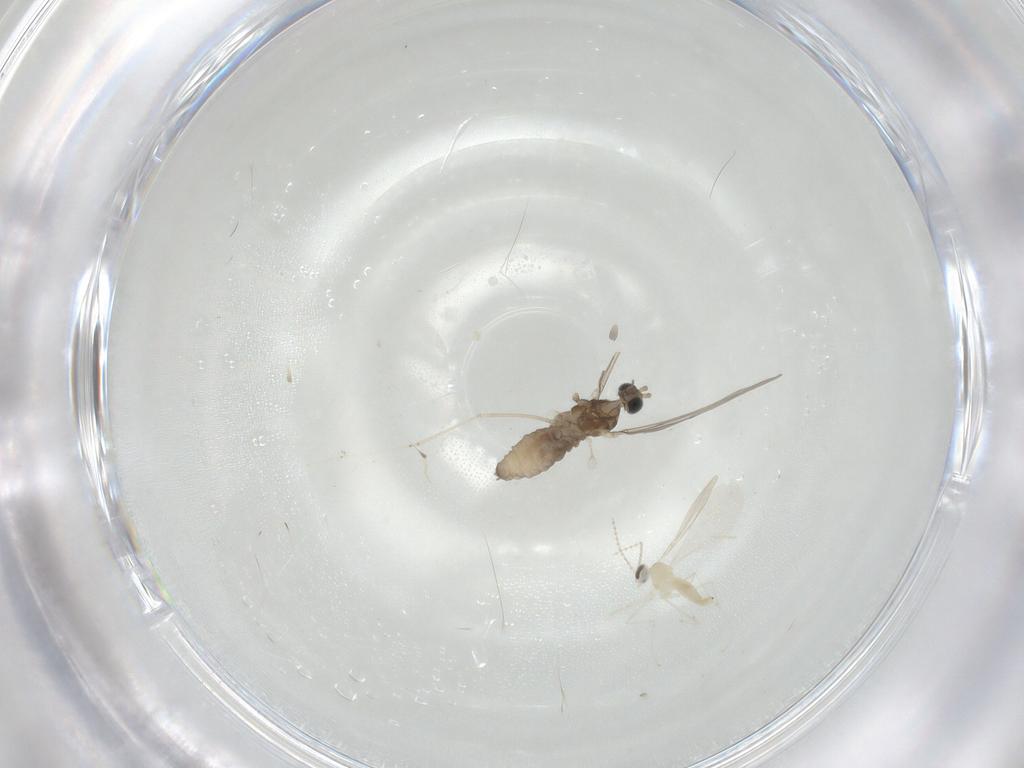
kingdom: Animalia
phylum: Arthropoda
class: Insecta
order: Diptera
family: Cecidomyiidae
